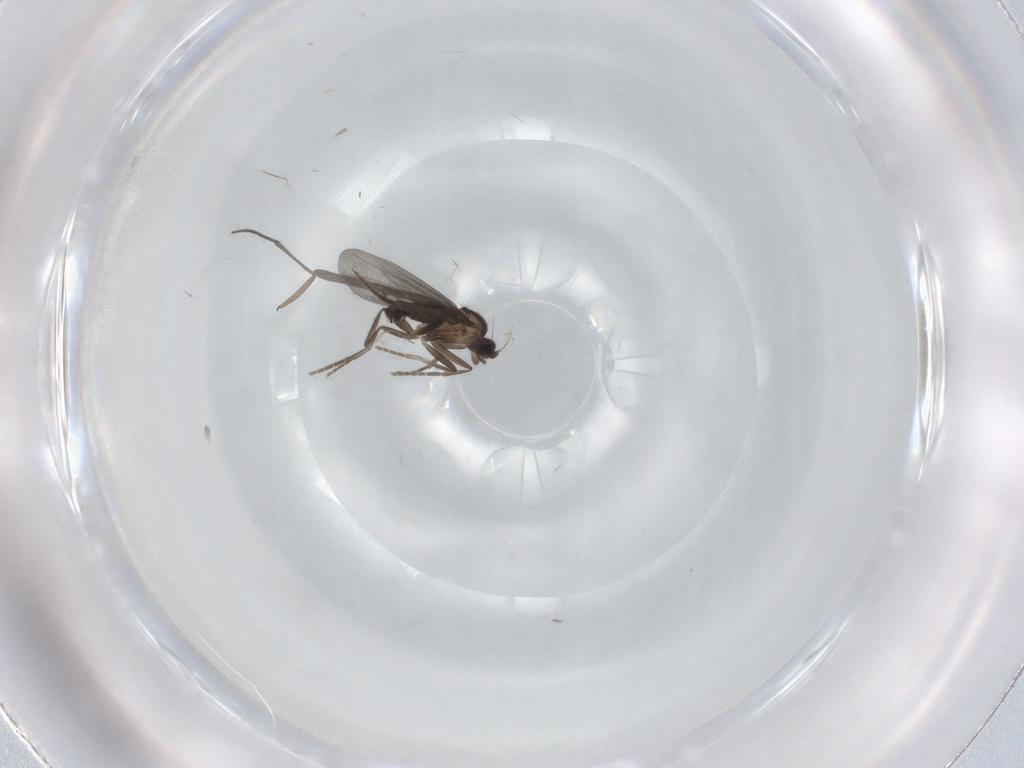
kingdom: Animalia
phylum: Arthropoda
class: Insecta
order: Diptera
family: Phoridae
